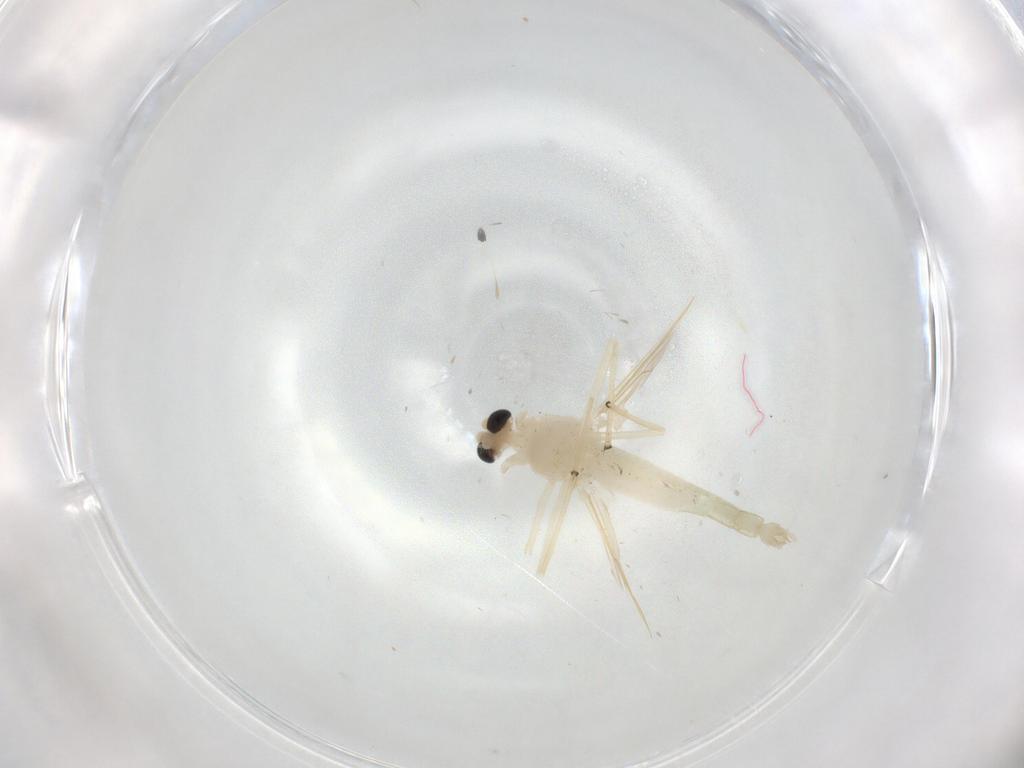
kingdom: Animalia
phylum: Arthropoda
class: Insecta
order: Diptera
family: Chironomidae
